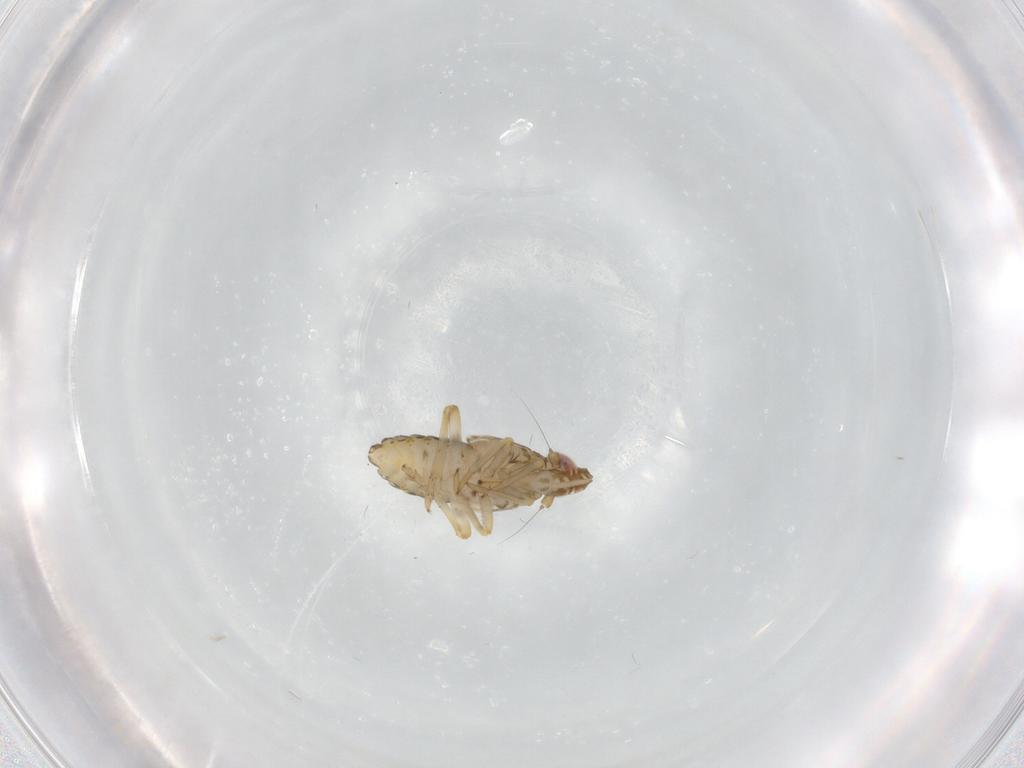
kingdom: Animalia
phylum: Arthropoda
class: Insecta
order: Hemiptera
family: Delphacidae
